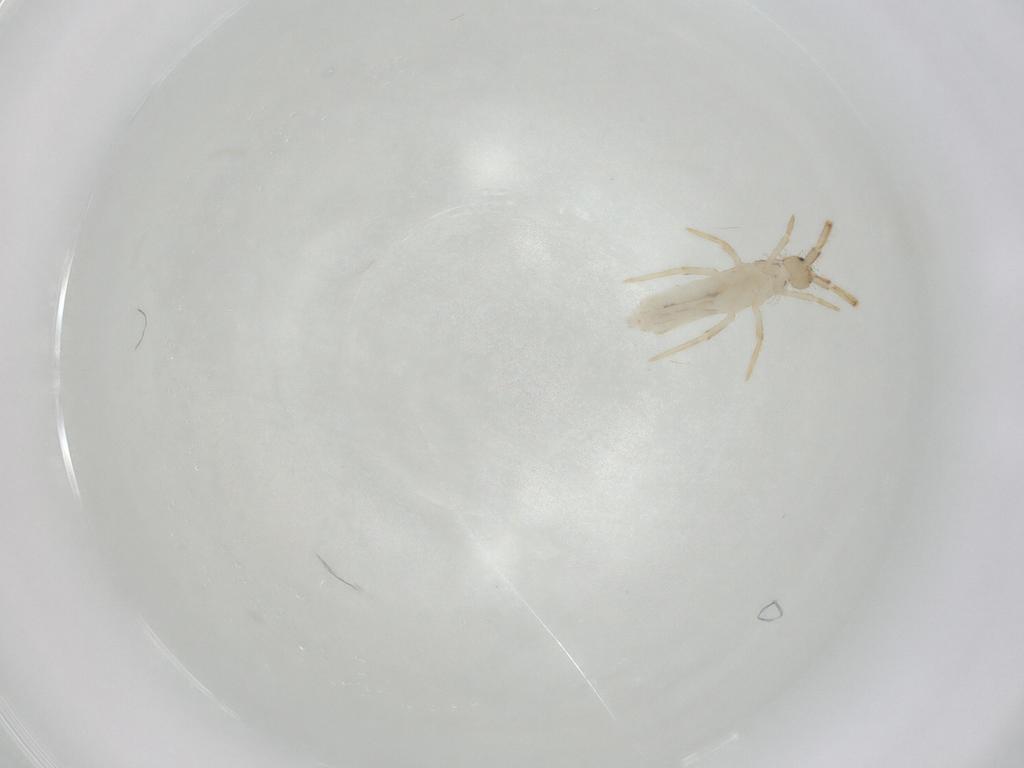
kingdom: Animalia
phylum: Arthropoda
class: Collembola
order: Entomobryomorpha
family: Entomobryidae
